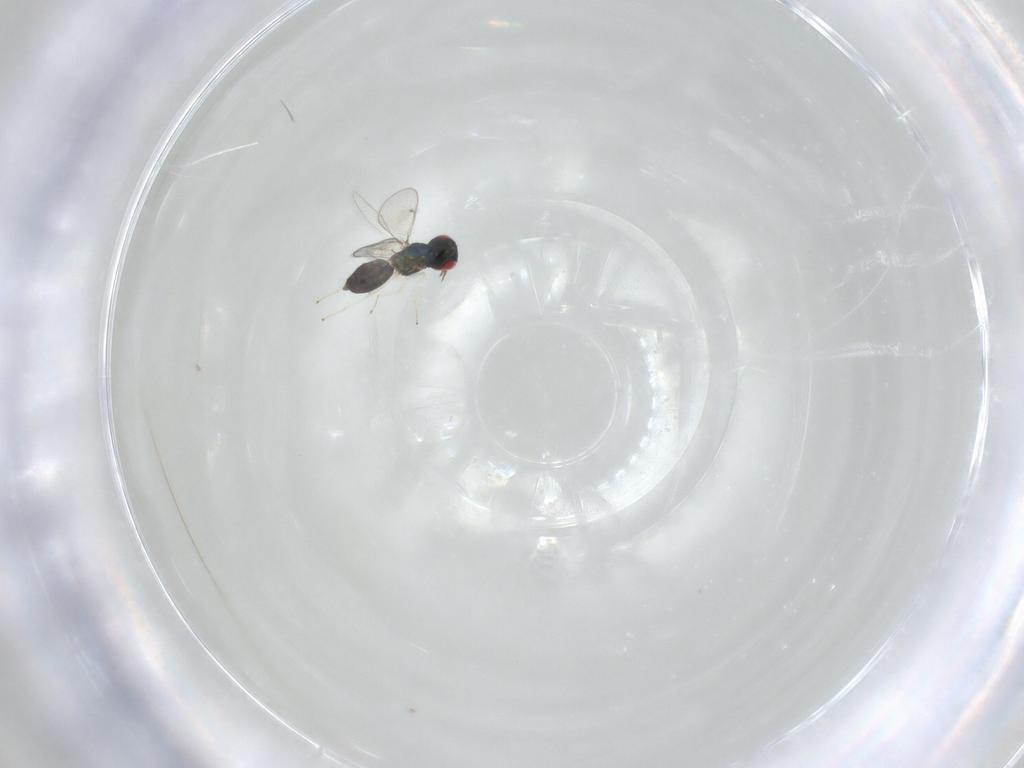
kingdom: Animalia
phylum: Arthropoda
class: Insecta
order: Hymenoptera
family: Eulophidae
